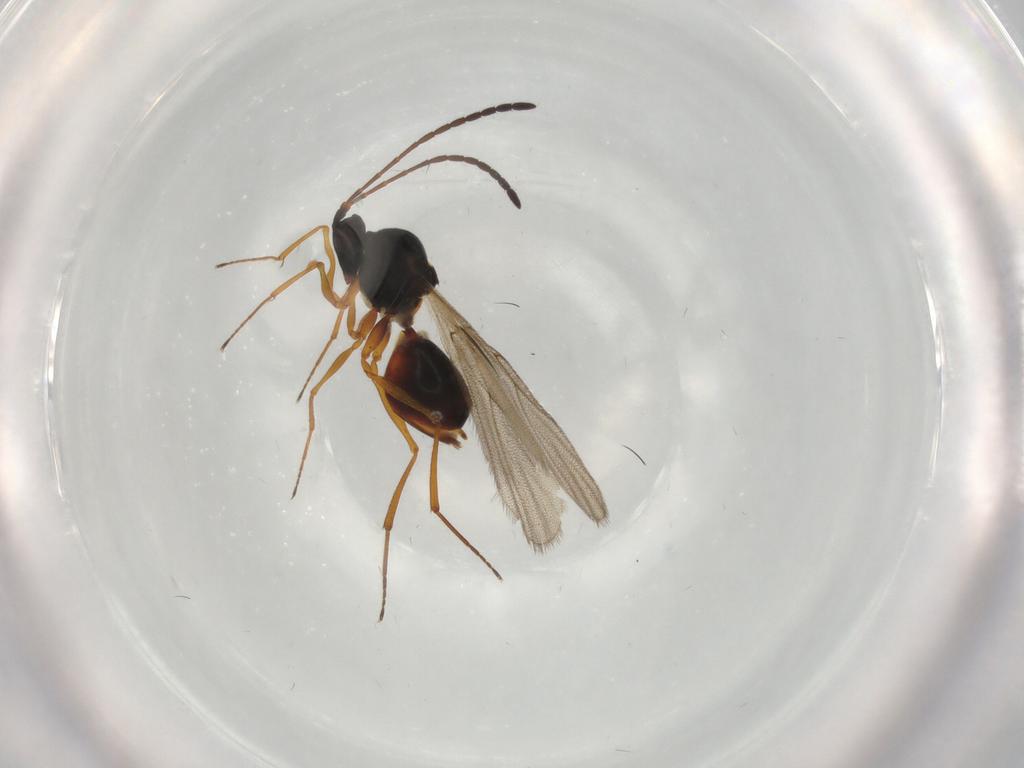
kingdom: Animalia
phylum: Arthropoda
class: Insecta
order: Hymenoptera
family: Figitidae
